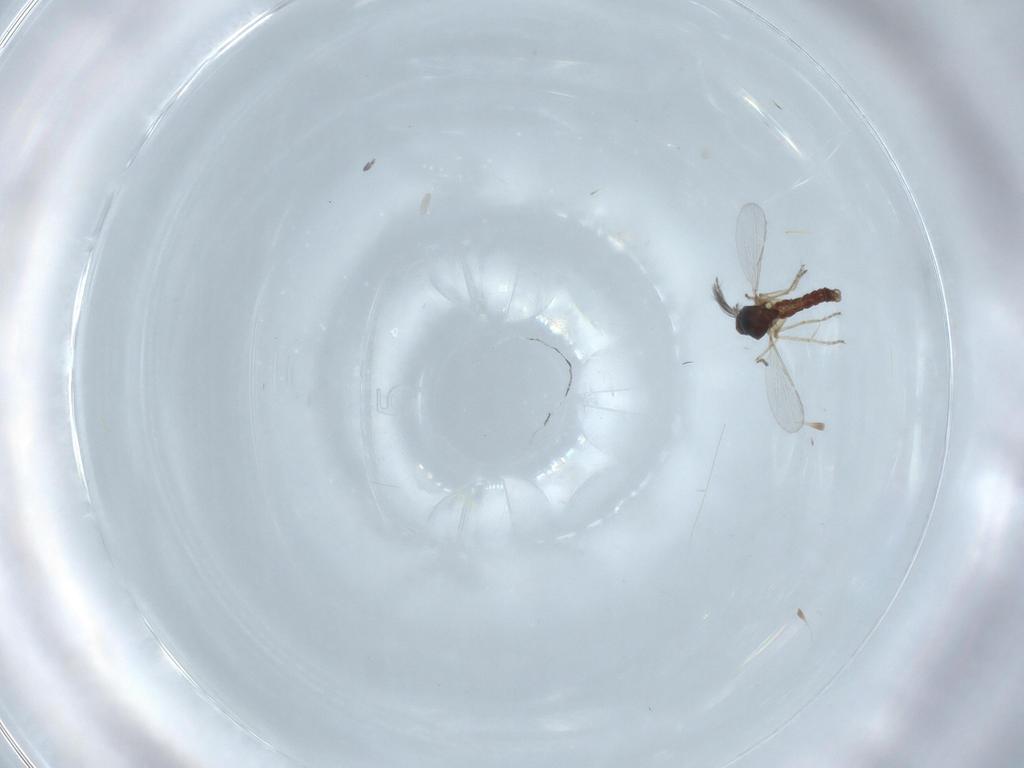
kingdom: Animalia
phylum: Arthropoda
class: Insecta
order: Diptera
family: Ceratopogonidae
